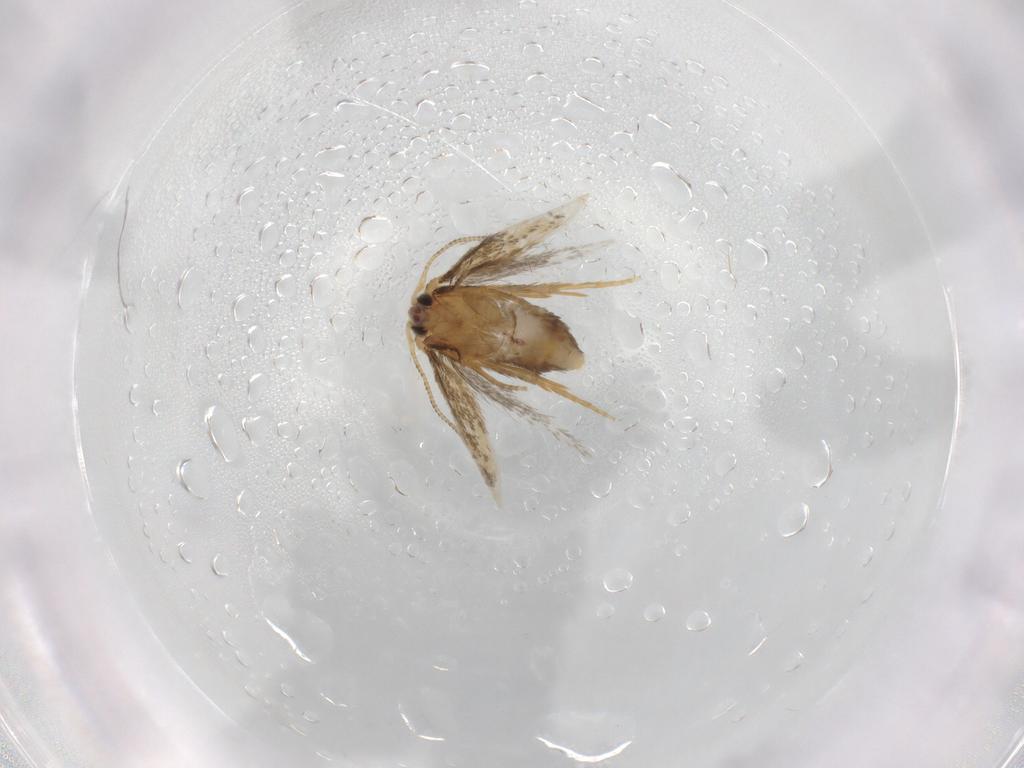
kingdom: Animalia
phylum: Arthropoda
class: Insecta
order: Lepidoptera
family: Nepticulidae
